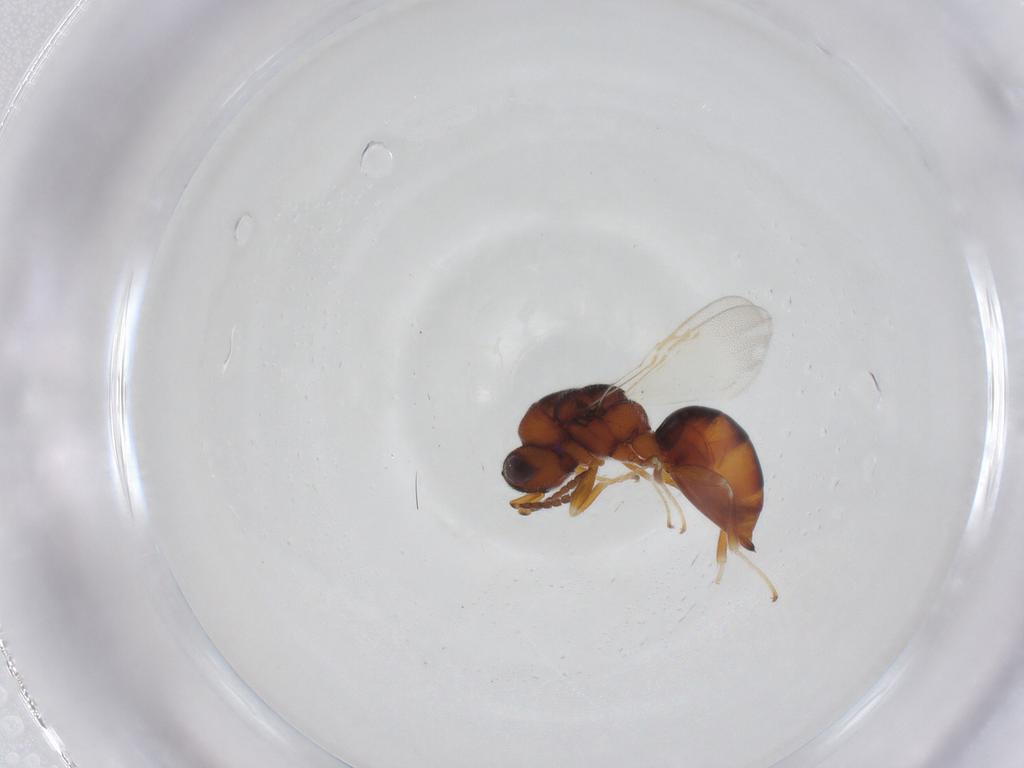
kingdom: Animalia
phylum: Arthropoda
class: Insecta
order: Hymenoptera
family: Eurytomidae
